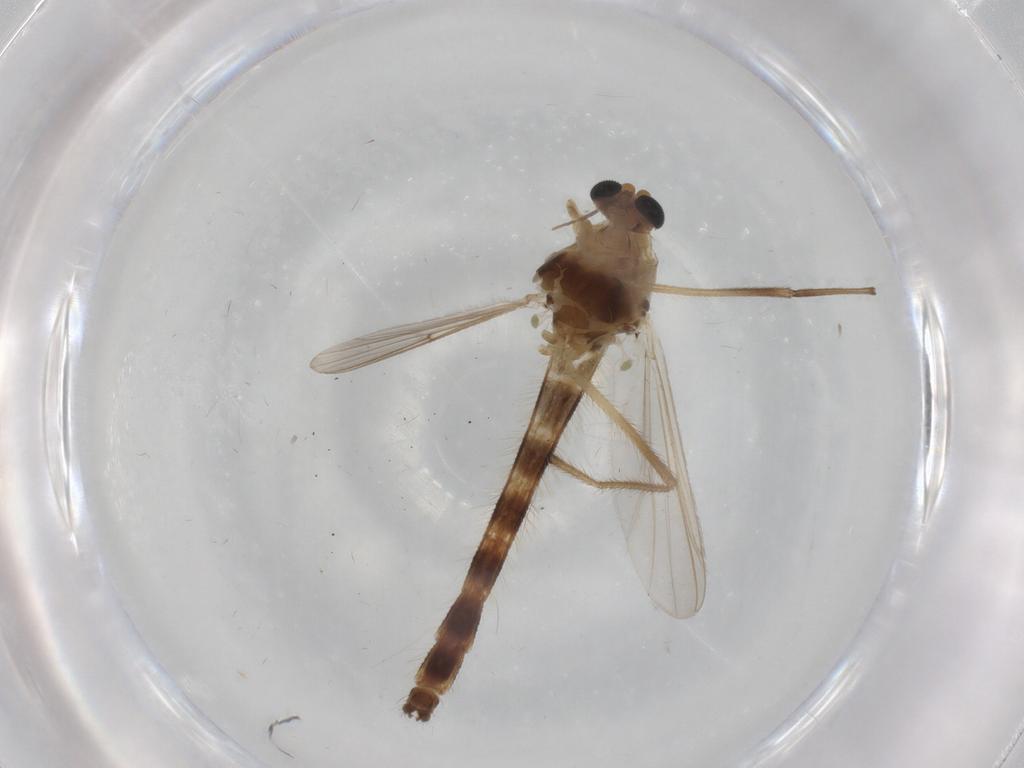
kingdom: Animalia
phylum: Arthropoda
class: Insecta
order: Diptera
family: Chironomidae
